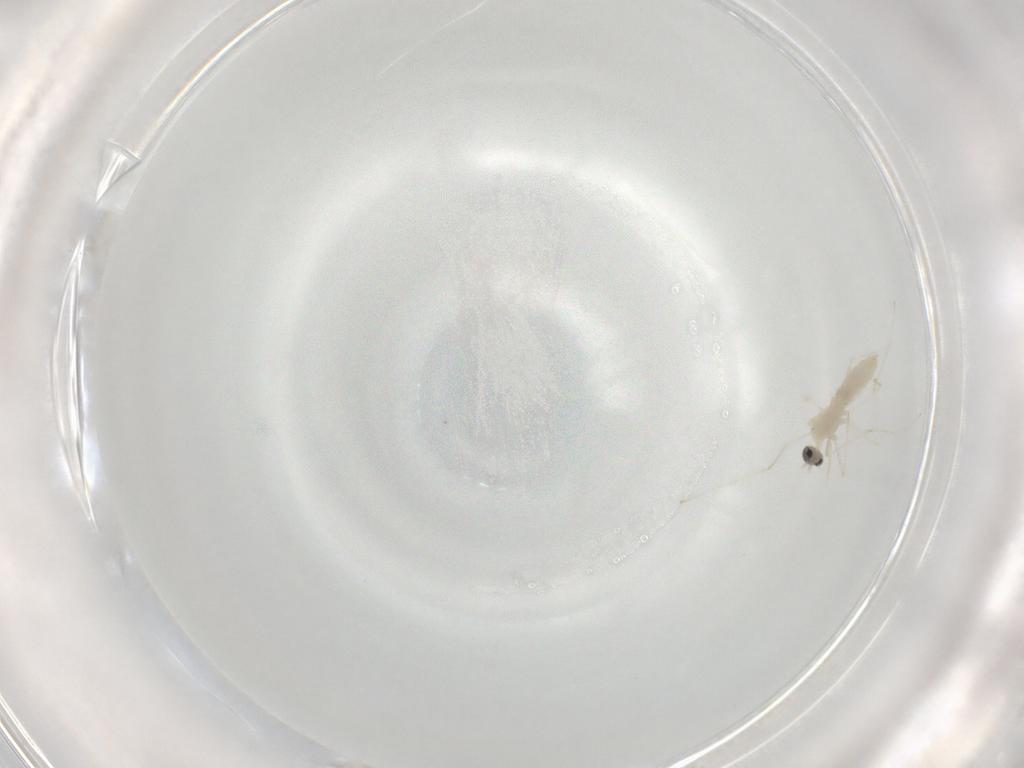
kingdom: Animalia
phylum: Arthropoda
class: Insecta
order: Diptera
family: Cecidomyiidae
